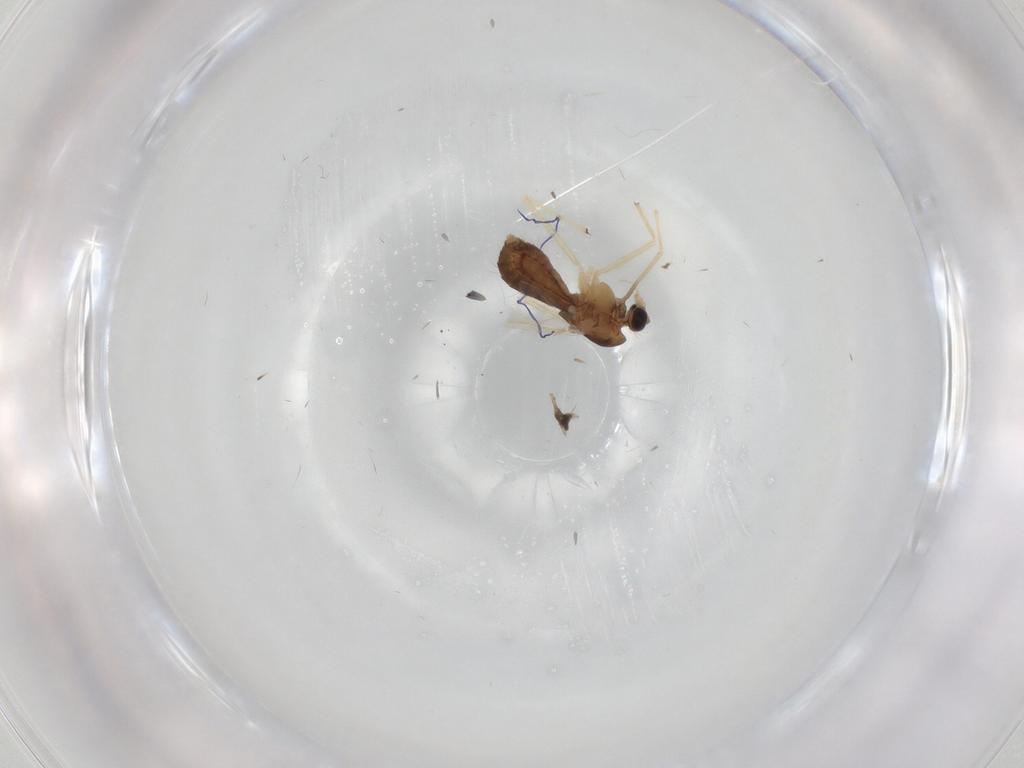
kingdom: Animalia
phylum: Arthropoda
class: Insecta
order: Diptera
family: Chironomidae
